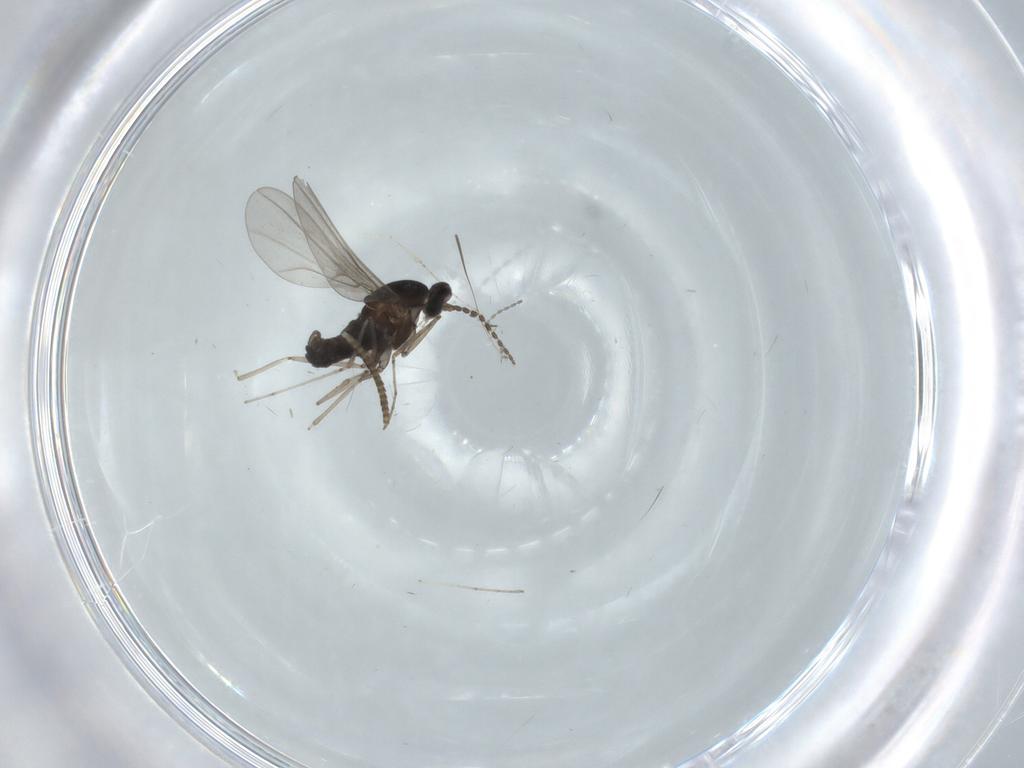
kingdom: Animalia
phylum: Arthropoda
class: Insecta
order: Diptera
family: Cecidomyiidae
